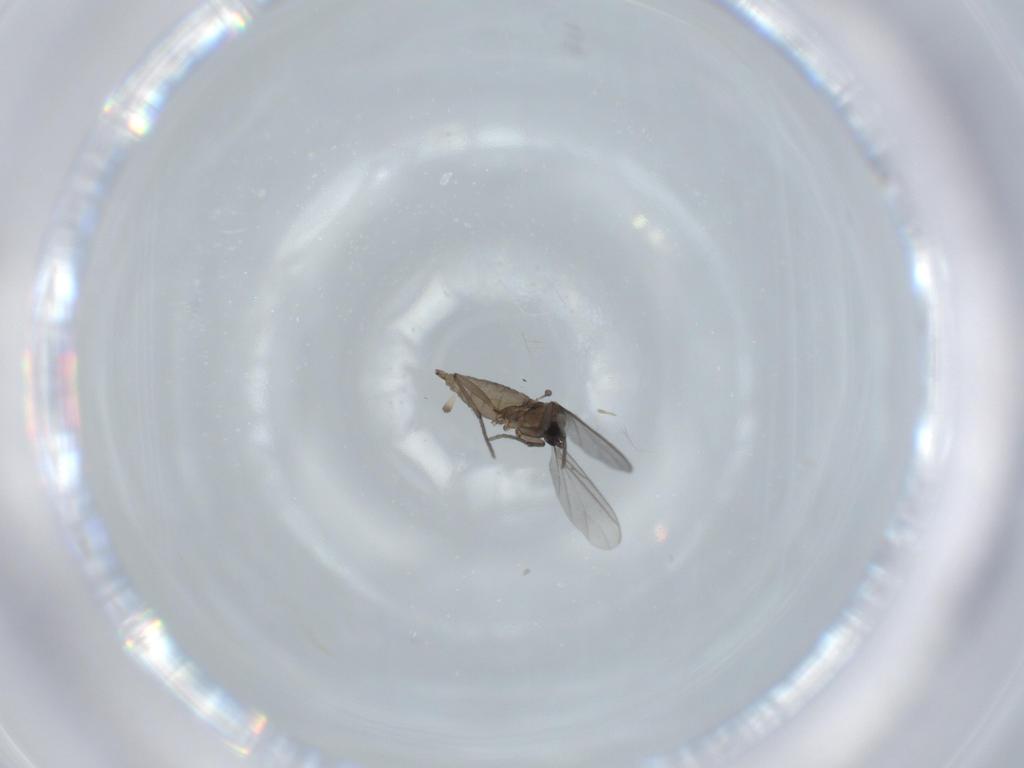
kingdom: Animalia
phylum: Arthropoda
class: Insecta
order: Diptera
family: Sciaridae
